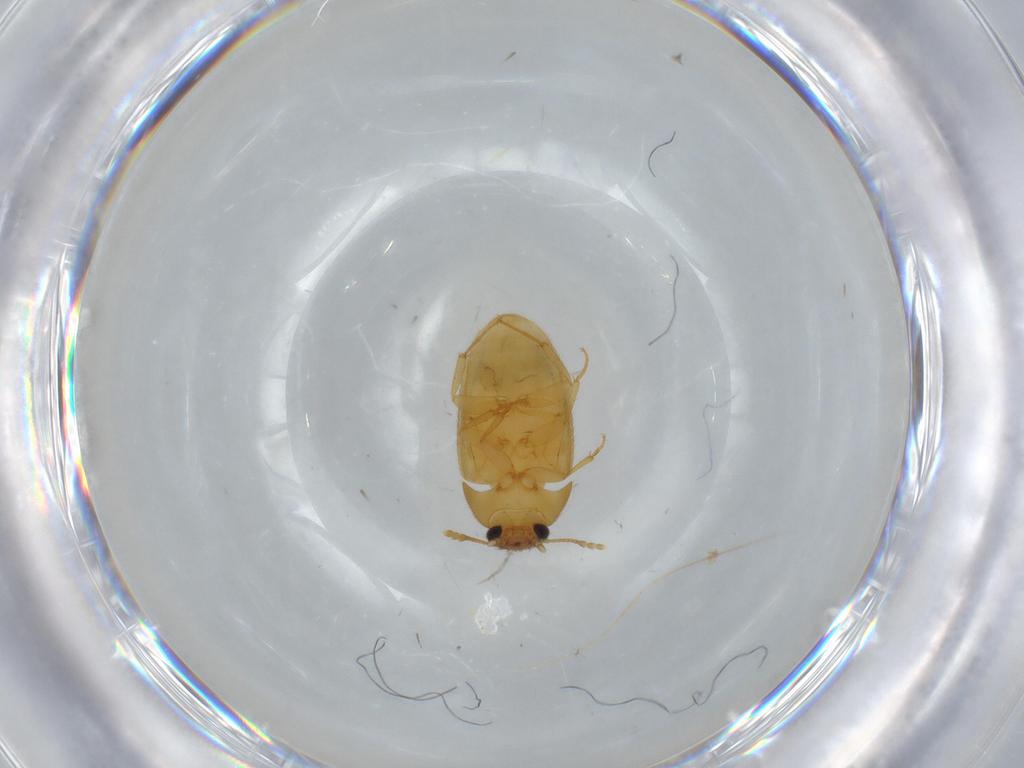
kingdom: Animalia
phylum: Arthropoda
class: Insecta
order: Coleoptera
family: Mycetophagidae
